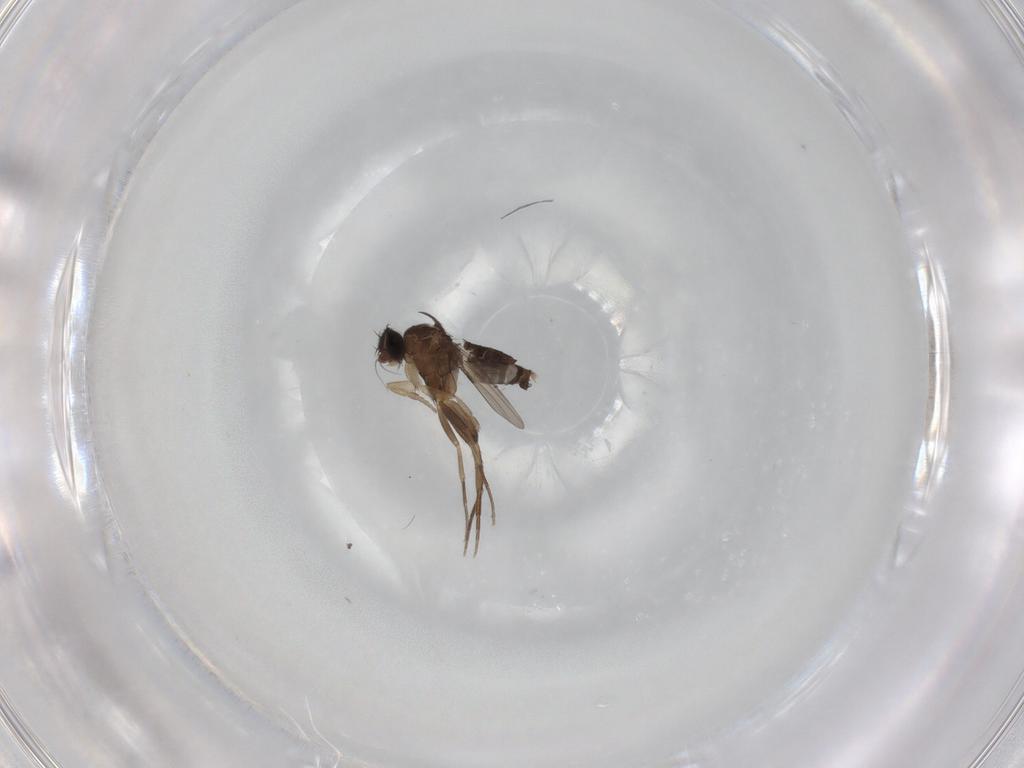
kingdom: Animalia
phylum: Arthropoda
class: Insecta
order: Diptera
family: Phoridae
